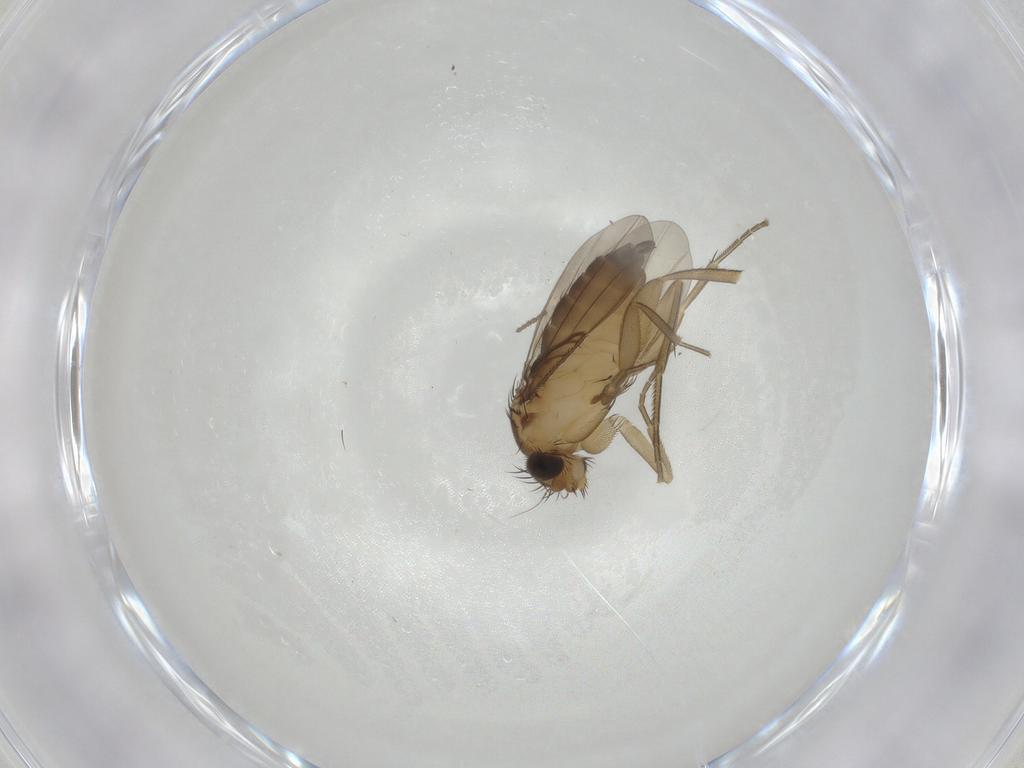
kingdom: Animalia
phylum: Arthropoda
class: Insecta
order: Diptera
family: Phoridae
